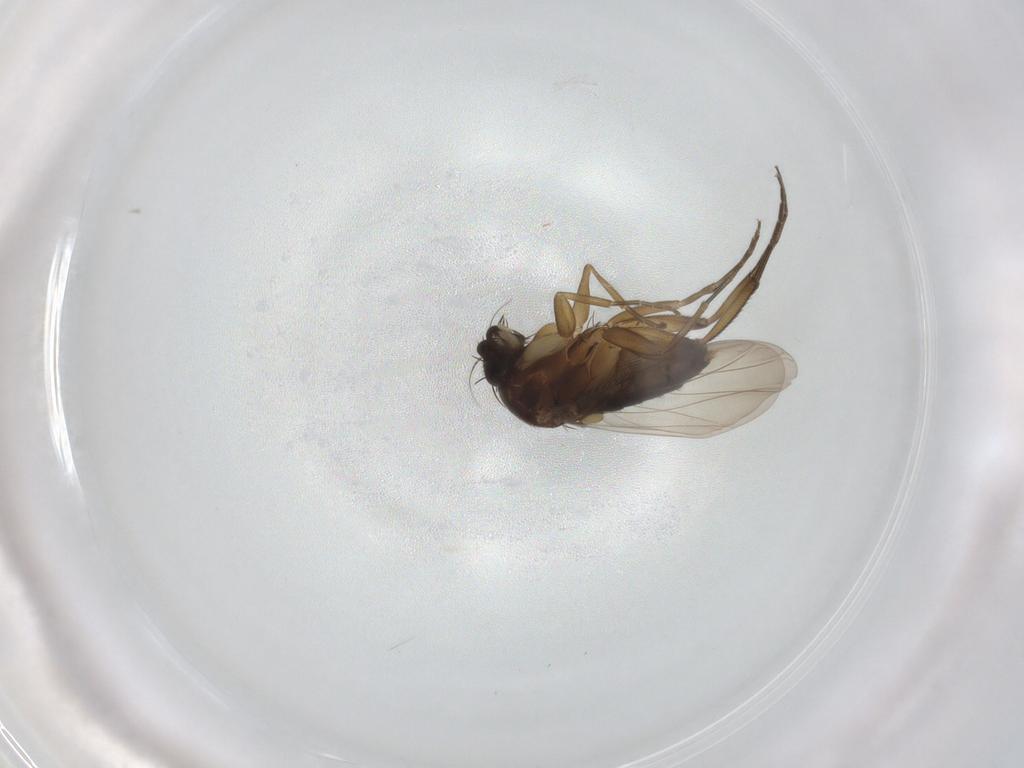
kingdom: Animalia
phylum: Arthropoda
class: Insecta
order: Diptera
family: Phoridae
